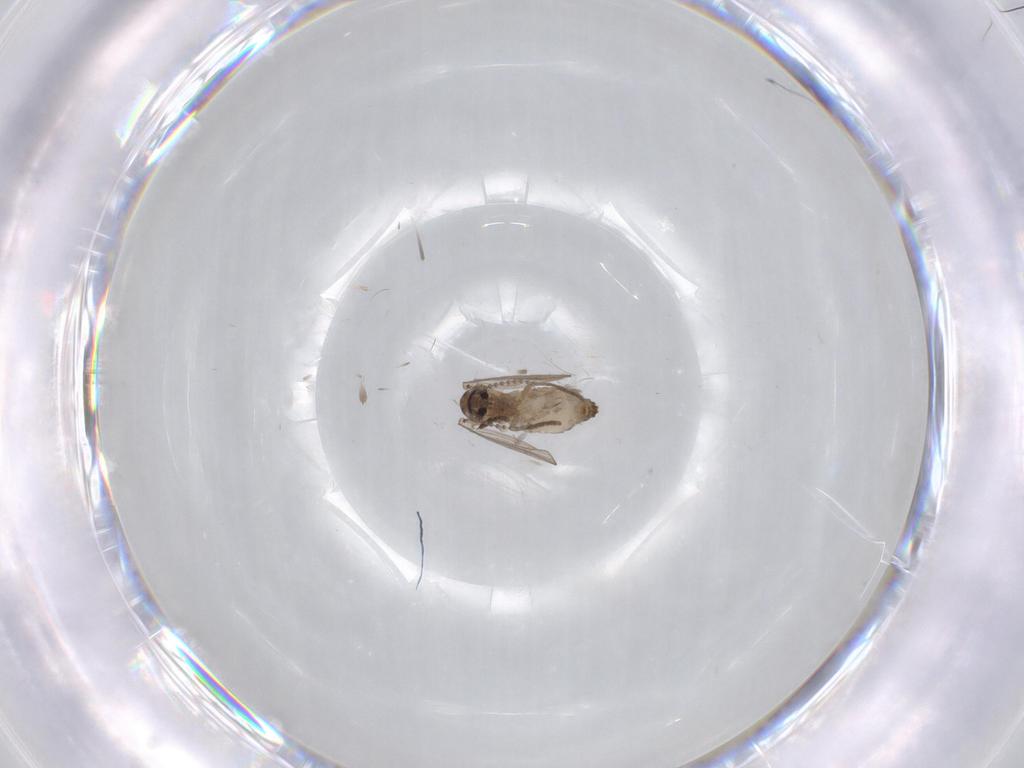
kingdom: Animalia
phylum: Arthropoda
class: Insecta
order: Diptera
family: Psychodidae
